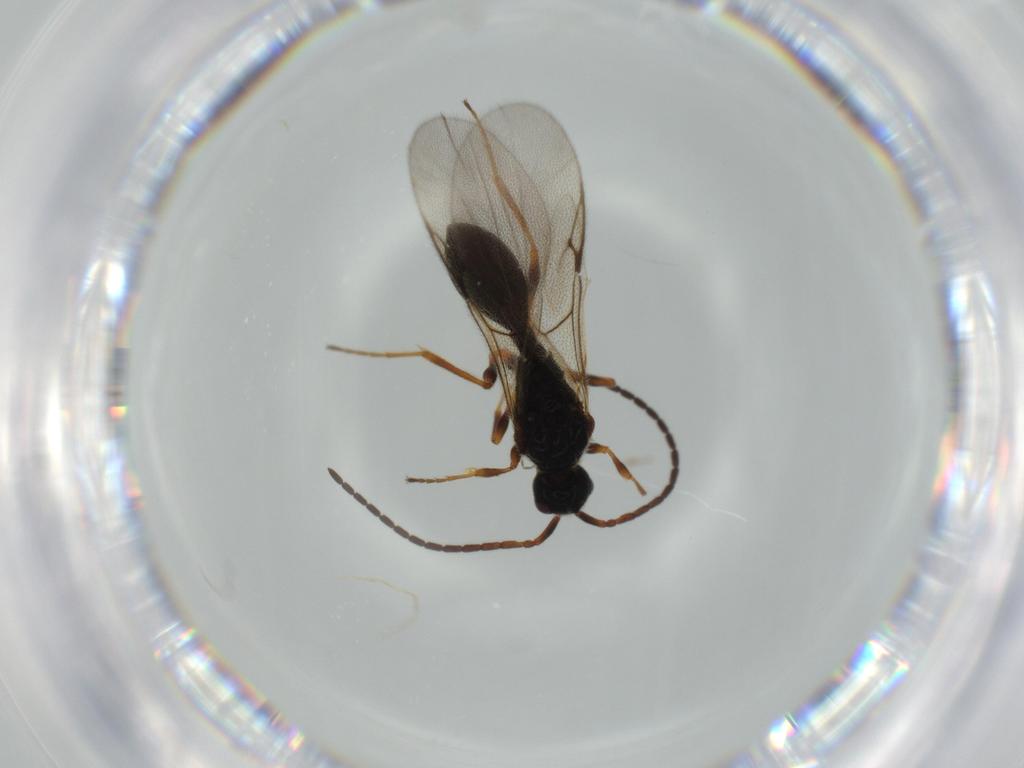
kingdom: Animalia
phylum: Arthropoda
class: Insecta
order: Hymenoptera
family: Diapriidae
